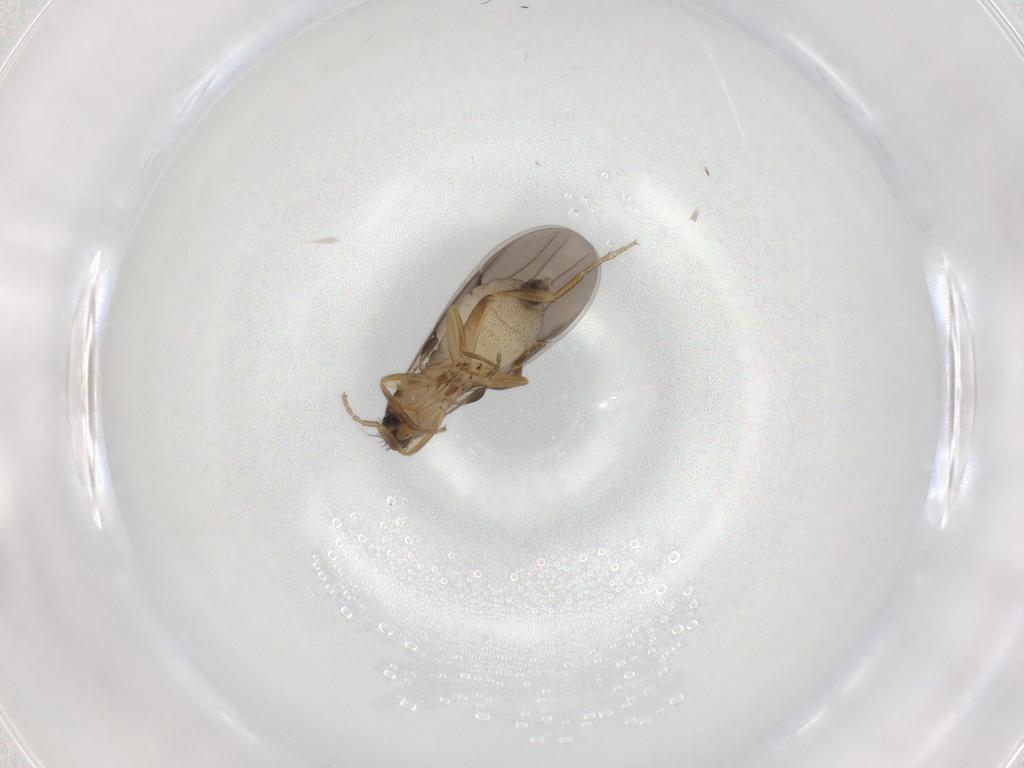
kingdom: Animalia
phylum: Arthropoda
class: Insecta
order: Diptera
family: Phoridae
